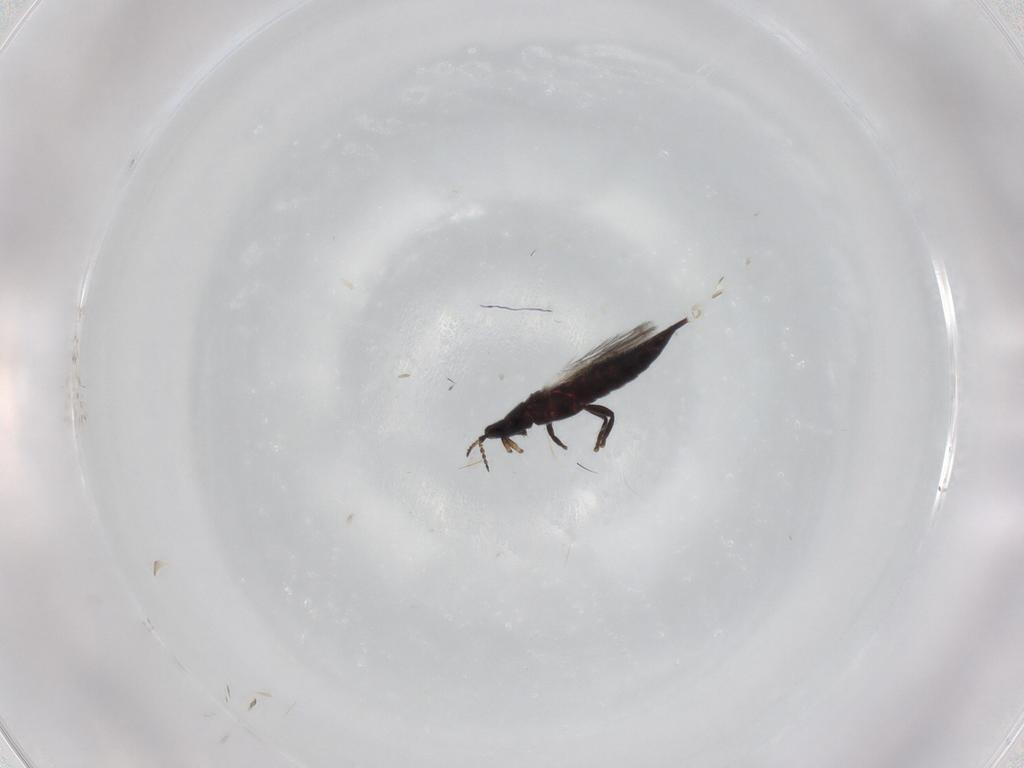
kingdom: Animalia
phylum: Arthropoda
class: Insecta
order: Thysanoptera
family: Phlaeothripidae
